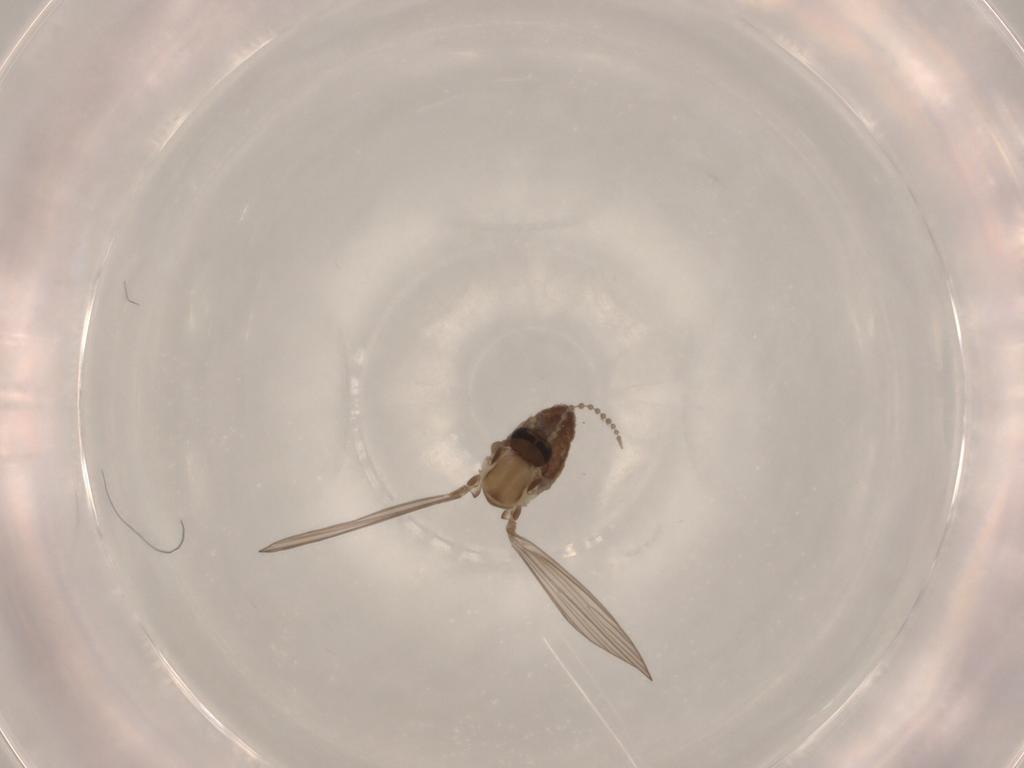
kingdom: Animalia
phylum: Arthropoda
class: Insecta
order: Diptera
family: Psychodidae
